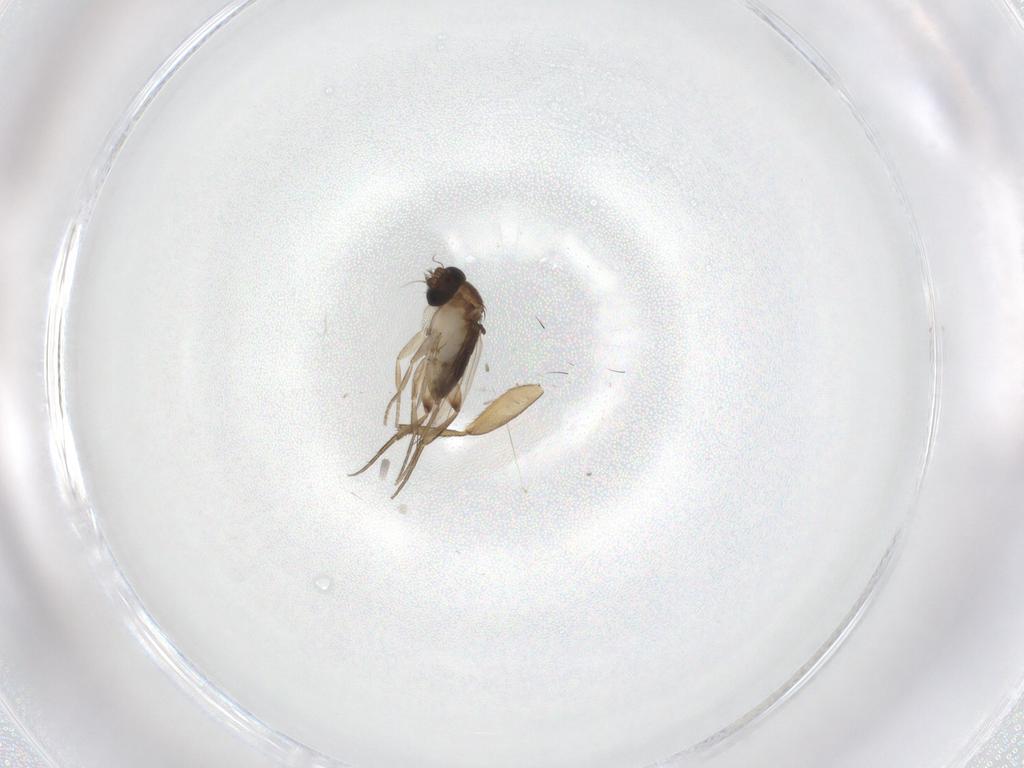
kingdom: Animalia
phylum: Arthropoda
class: Insecta
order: Diptera
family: Phoridae
